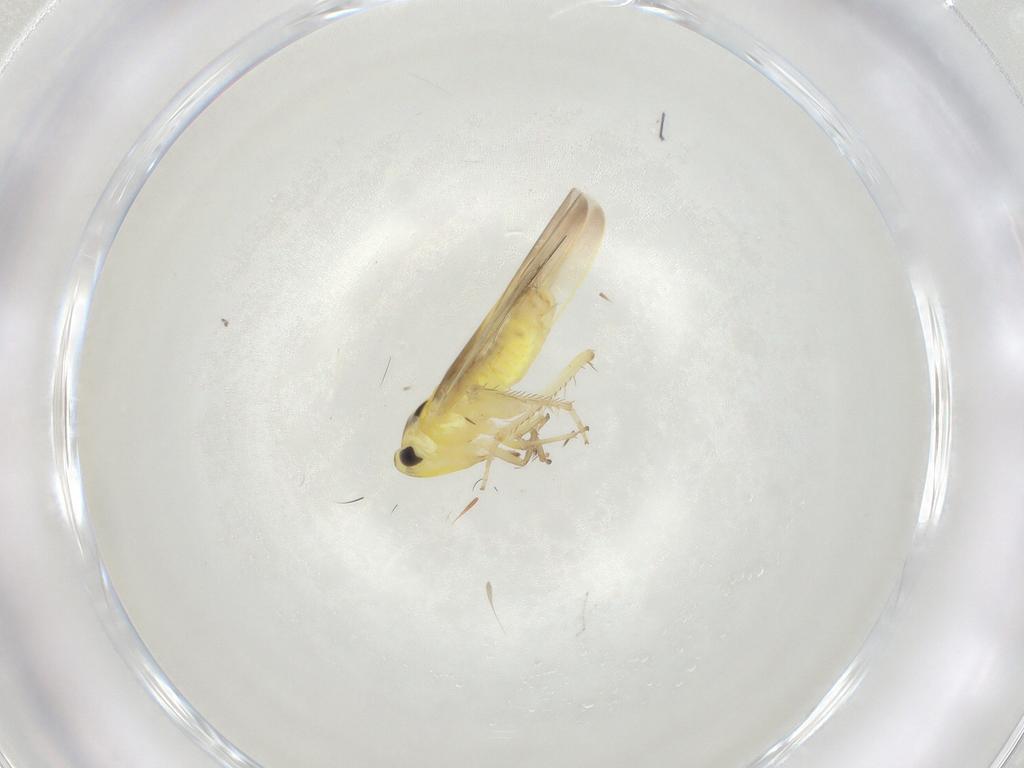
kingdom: Animalia
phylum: Arthropoda
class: Insecta
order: Hemiptera
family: Cicadellidae
